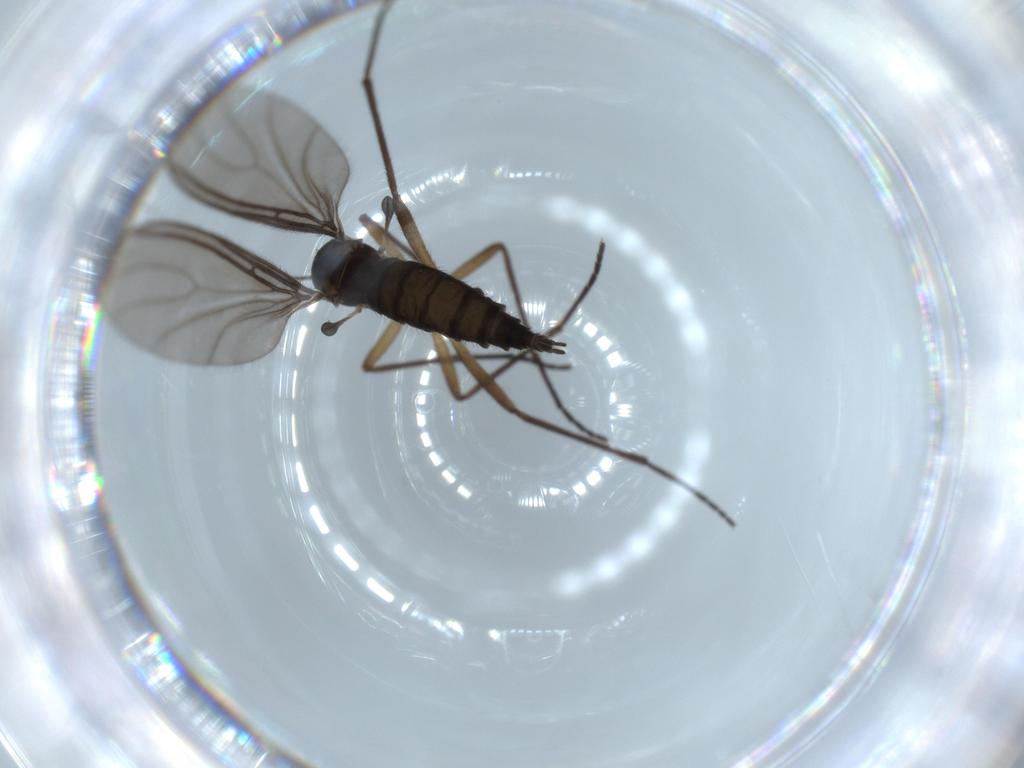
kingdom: Animalia
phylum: Arthropoda
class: Insecta
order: Diptera
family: Sciaridae
